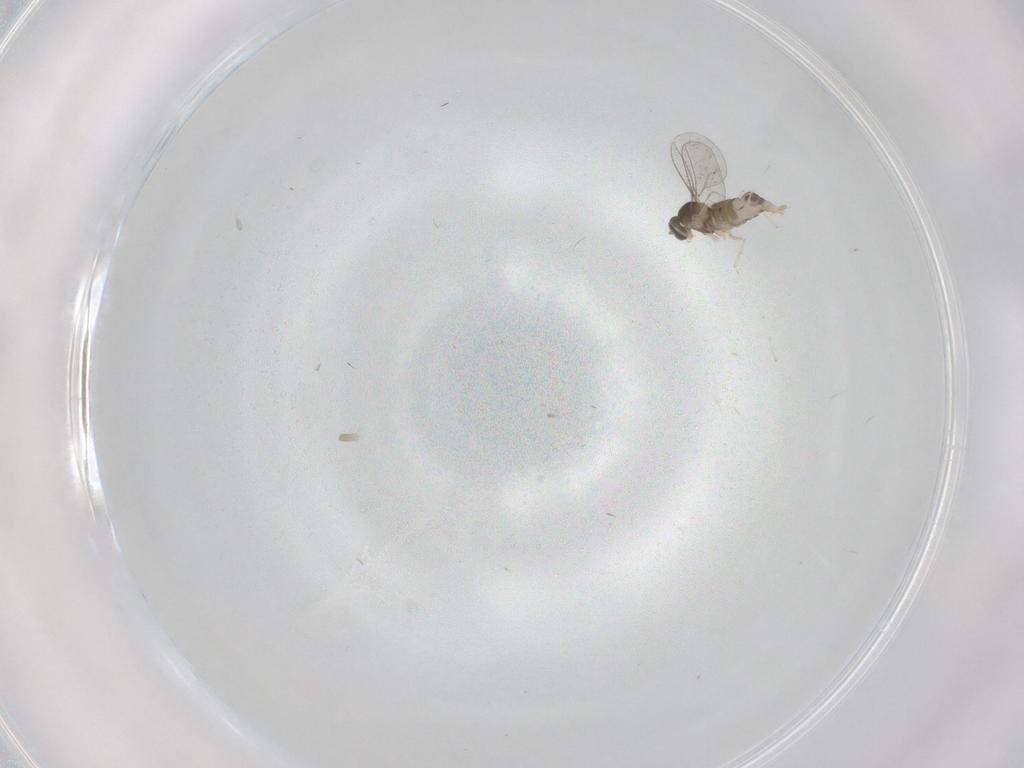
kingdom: Animalia
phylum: Arthropoda
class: Insecta
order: Diptera
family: Cecidomyiidae
